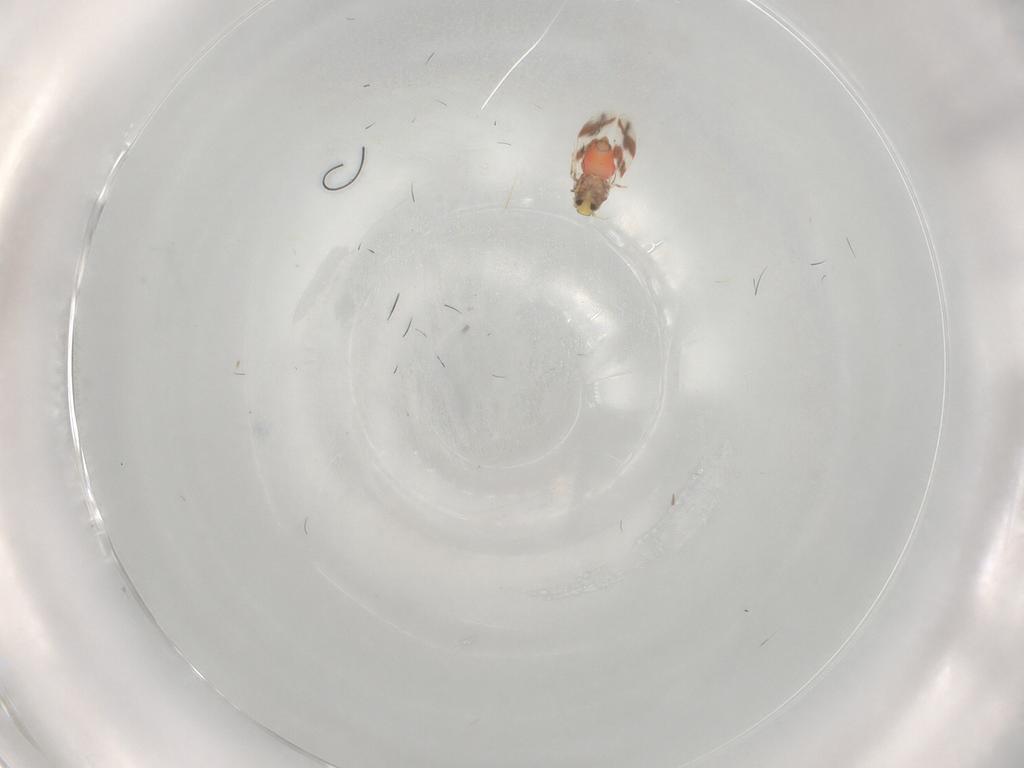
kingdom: Animalia
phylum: Arthropoda
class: Insecta
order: Hemiptera
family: Aleyrodidae
